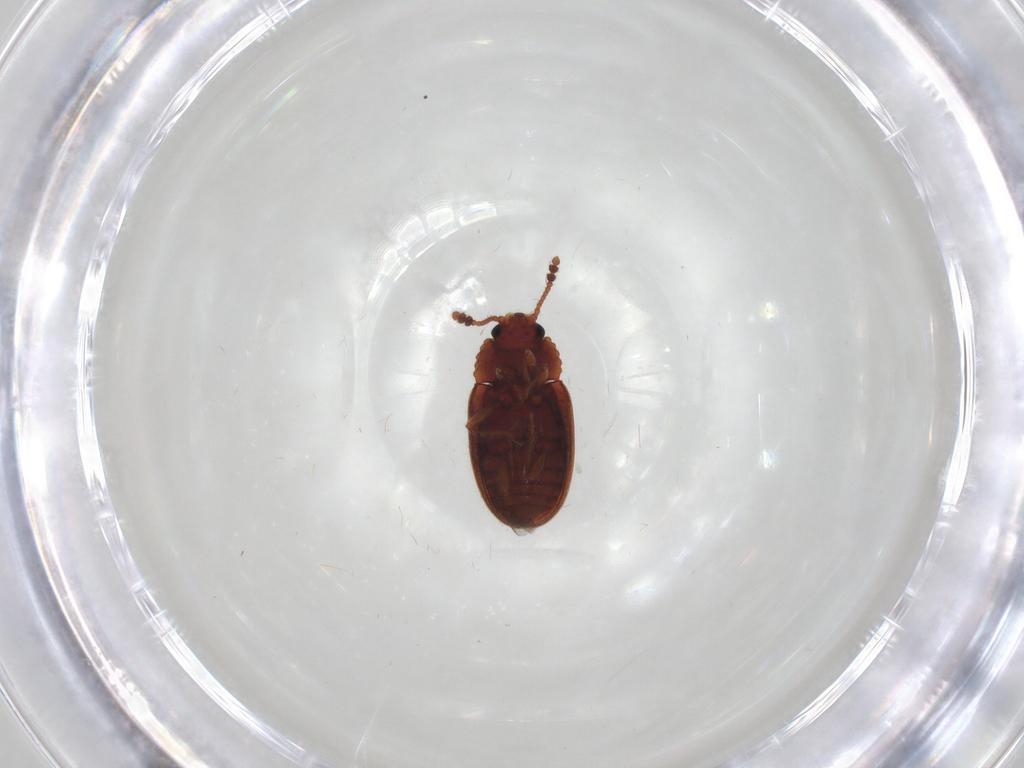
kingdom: Animalia
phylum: Arthropoda
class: Insecta
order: Coleoptera
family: Erotylidae
